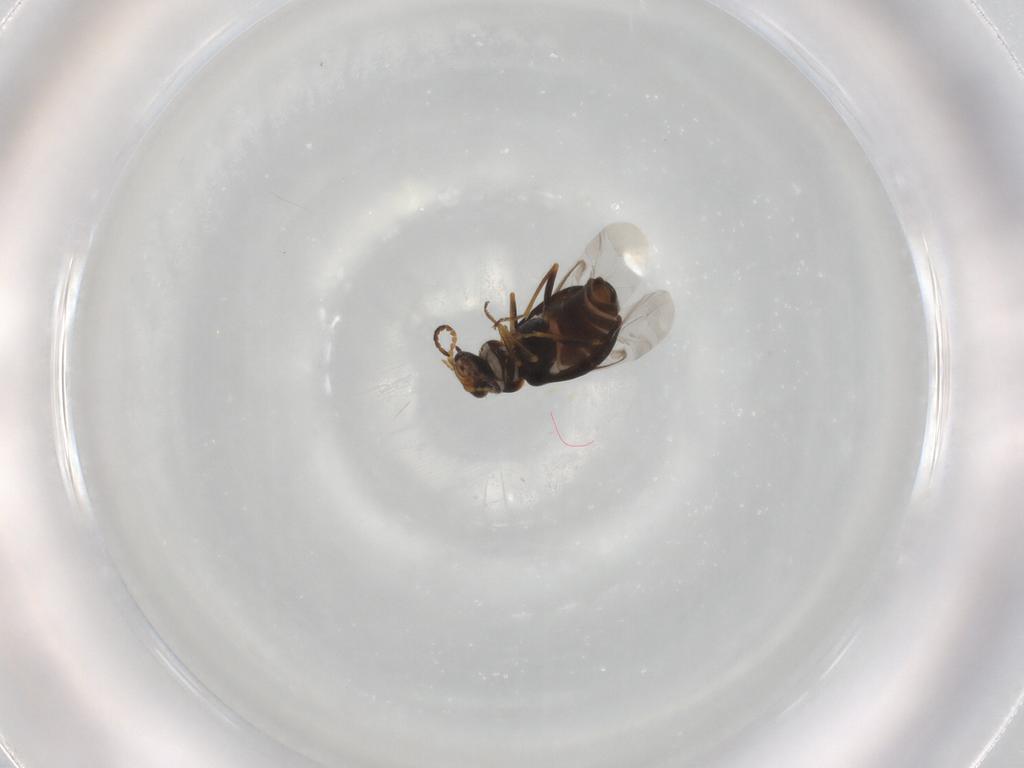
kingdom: Animalia
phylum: Arthropoda
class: Insecta
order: Coleoptera
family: Melyridae
